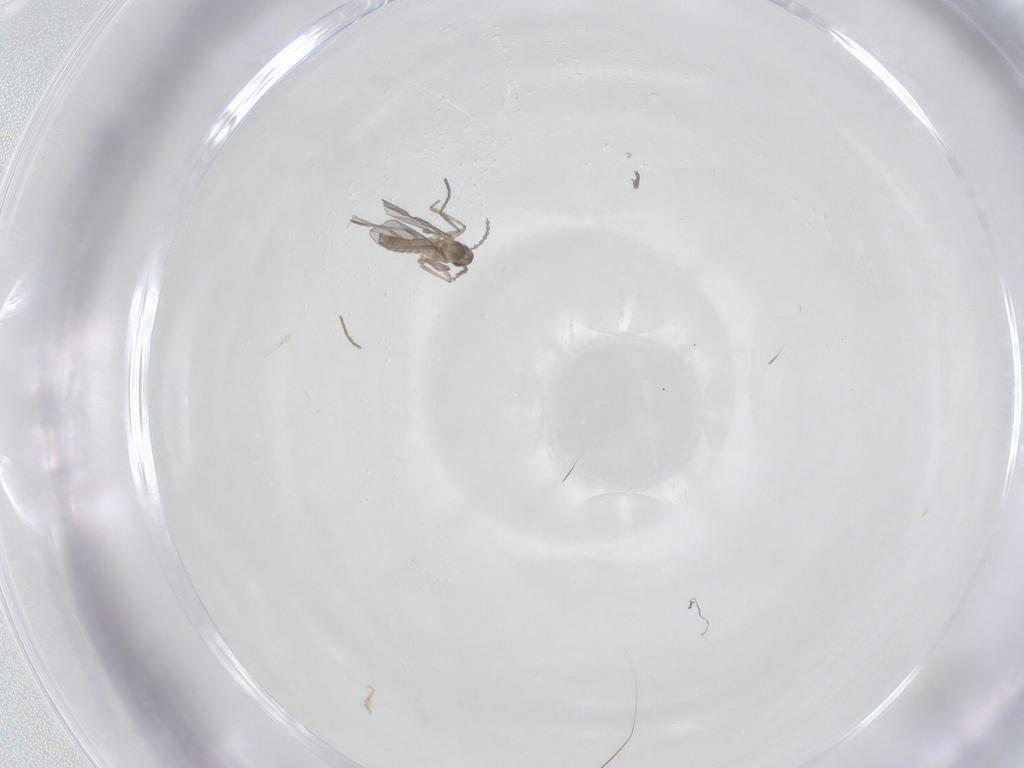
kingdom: Animalia
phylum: Arthropoda
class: Insecta
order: Diptera
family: Cecidomyiidae
